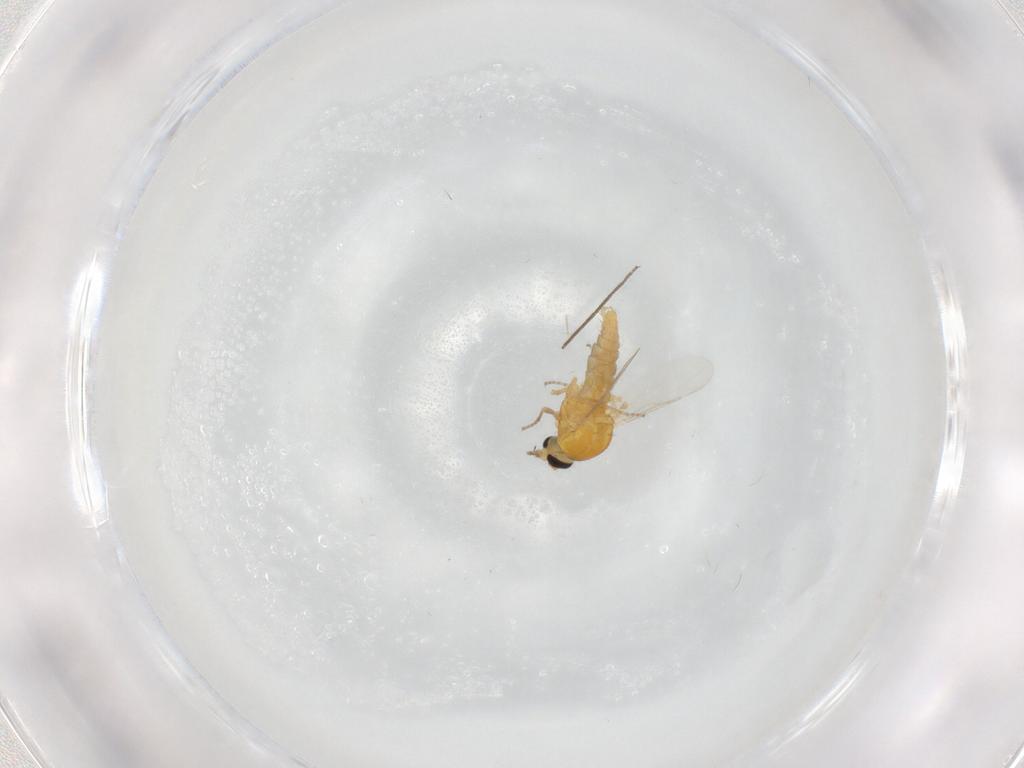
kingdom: Animalia
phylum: Arthropoda
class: Insecta
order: Diptera
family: Ceratopogonidae
